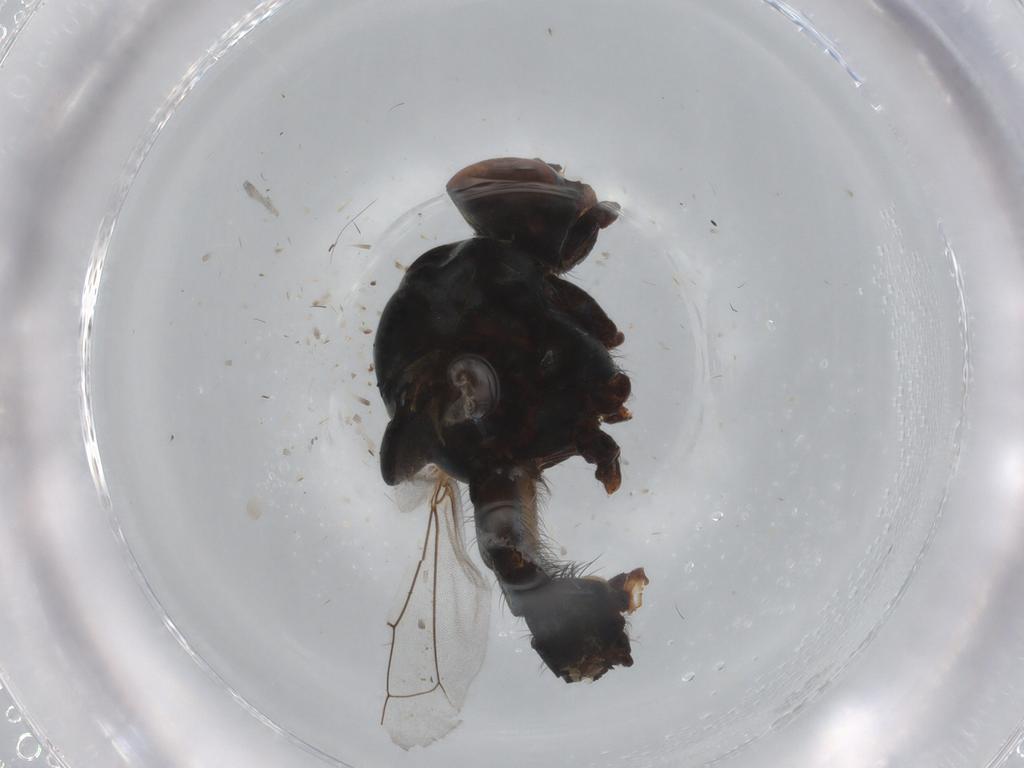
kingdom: Animalia
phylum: Arthropoda
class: Insecta
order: Diptera
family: Anthomyiidae
